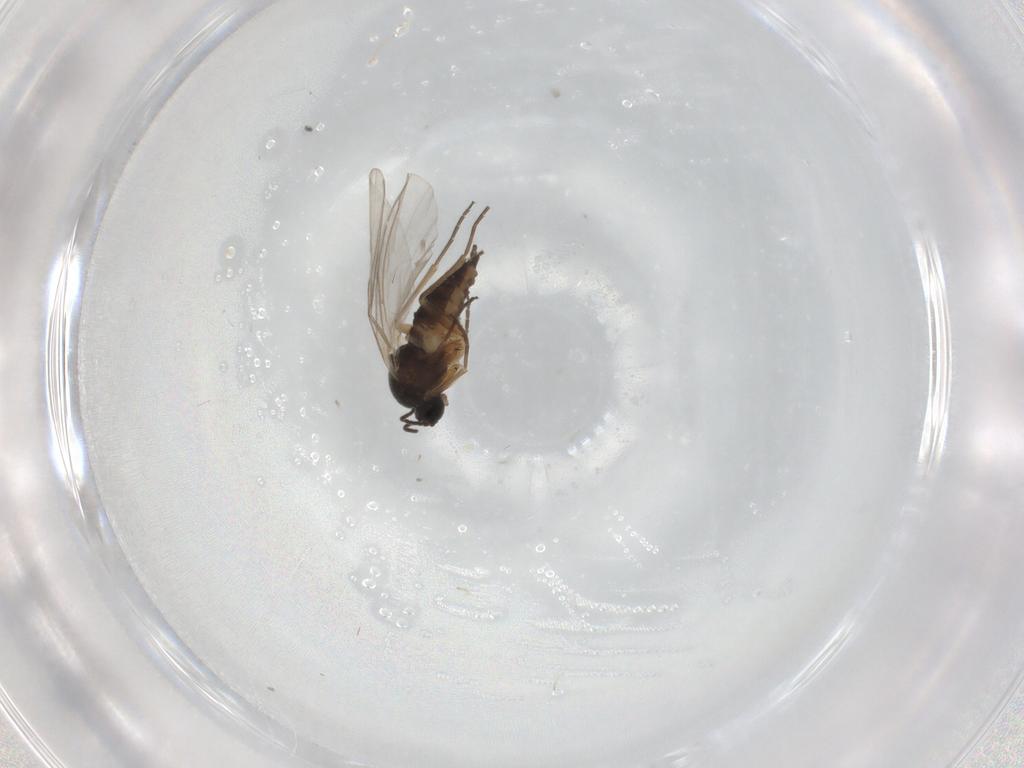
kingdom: Animalia
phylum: Arthropoda
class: Insecta
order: Diptera
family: Sciaridae
